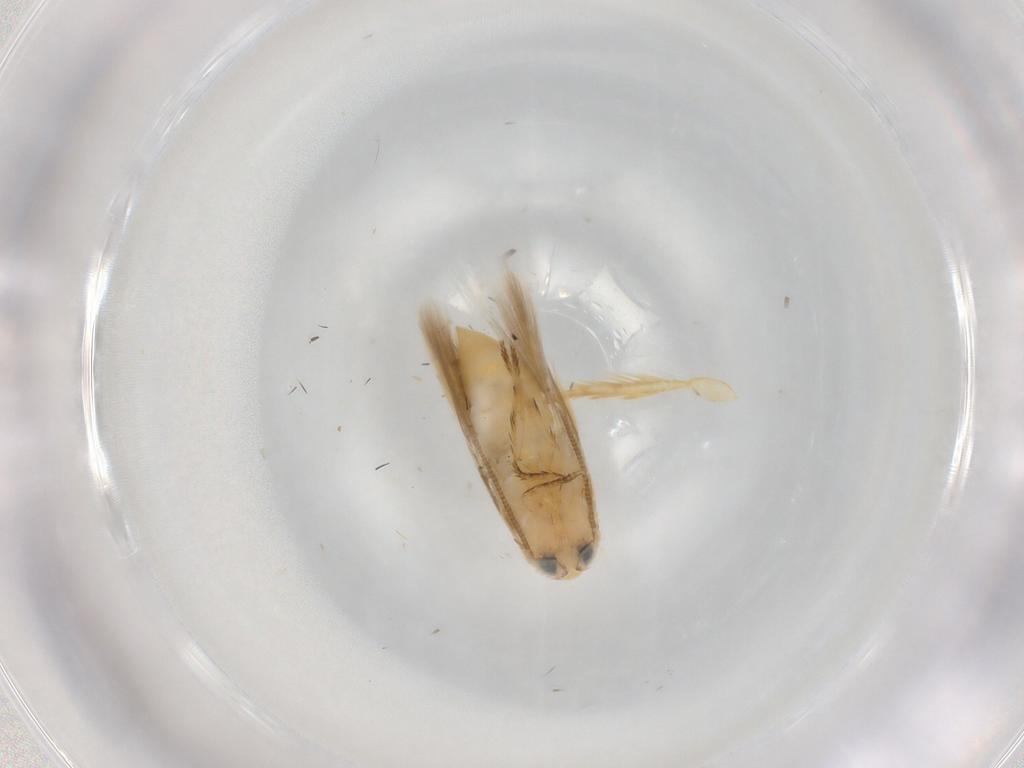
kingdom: Animalia
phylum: Arthropoda
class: Insecta
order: Lepidoptera
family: Opostegidae
